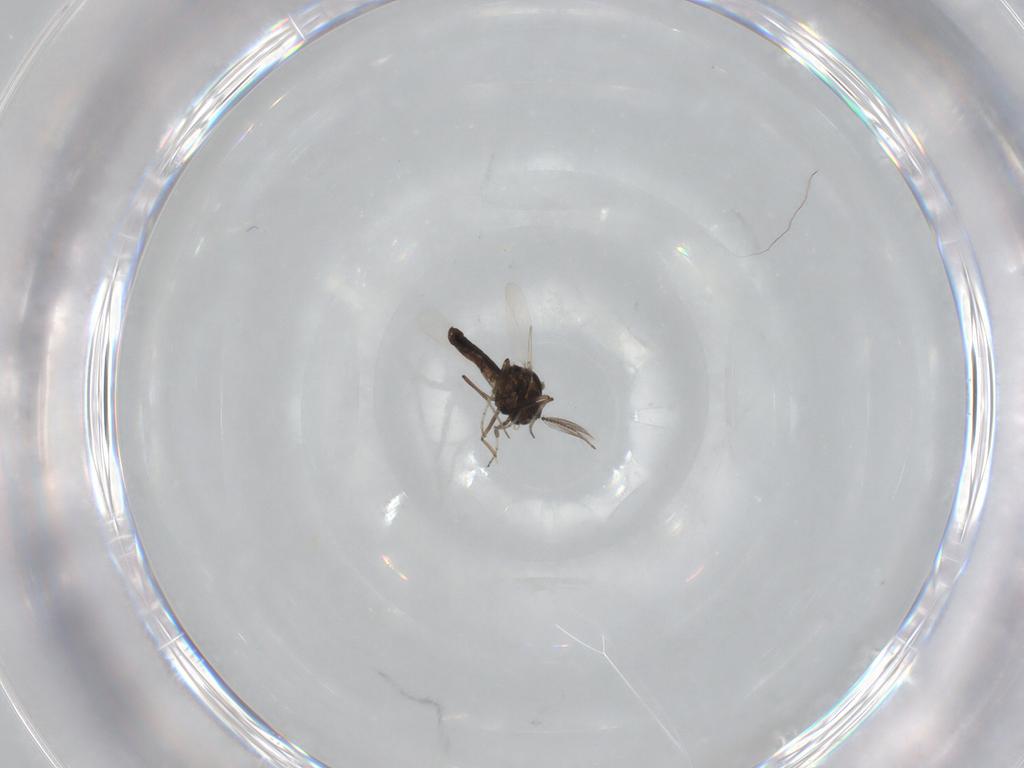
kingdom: Animalia
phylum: Arthropoda
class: Insecta
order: Diptera
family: Ceratopogonidae
